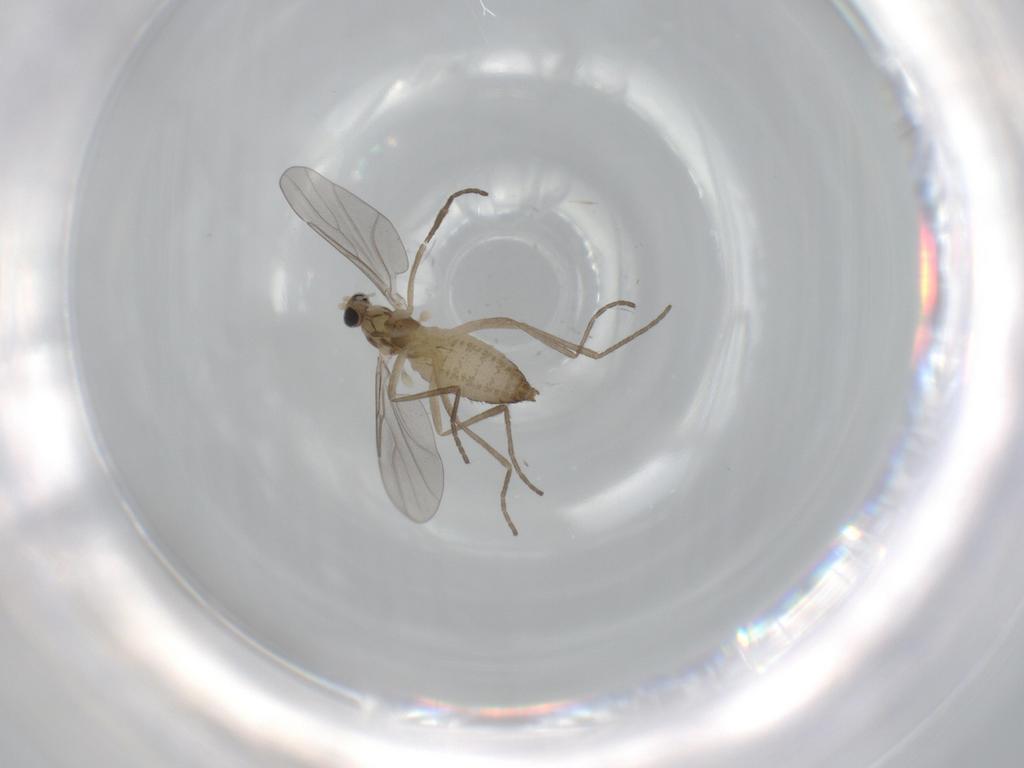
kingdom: Animalia
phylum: Arthropoda
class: Insecta
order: Diptera
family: Cecidomyiidae
